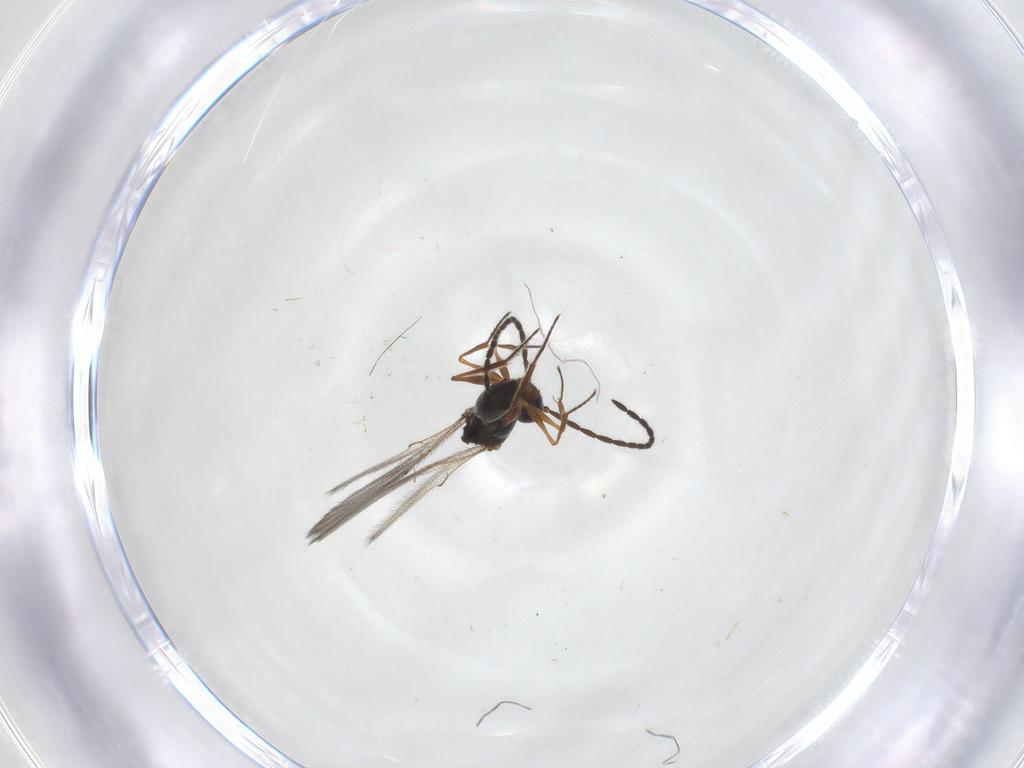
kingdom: Animalia
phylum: Arthropoda
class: Insecta
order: Hymenoptera
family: Figitidae
